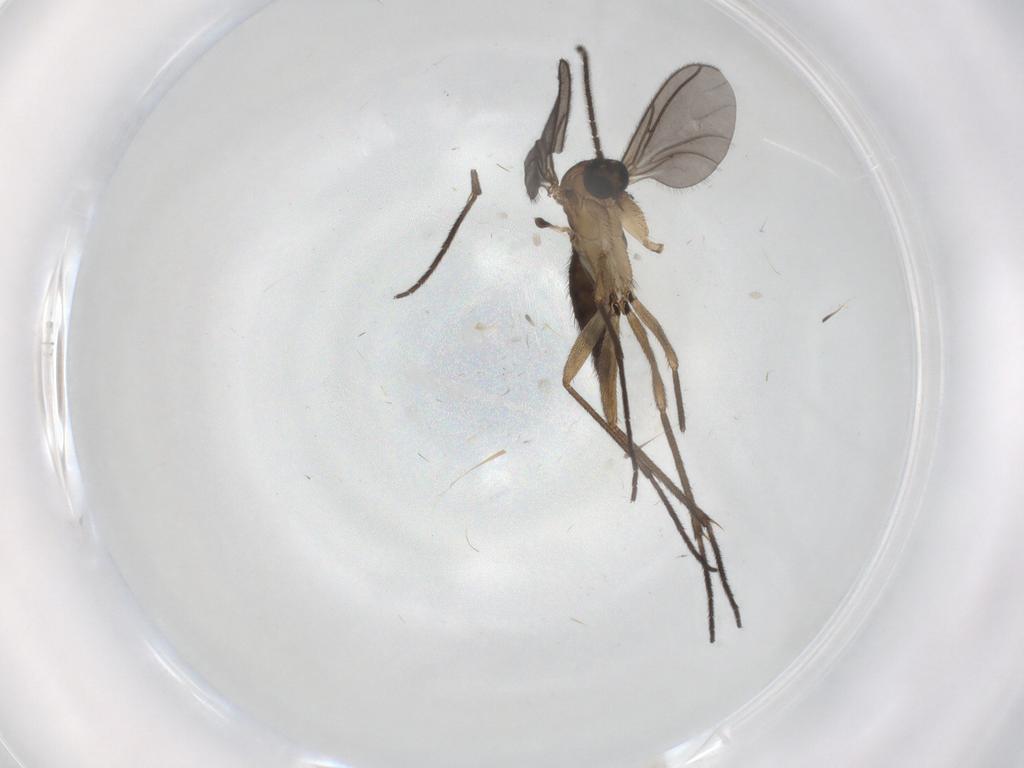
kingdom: Animalia
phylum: Arthropoda
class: Insecta
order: Diptera
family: Sciaridae
